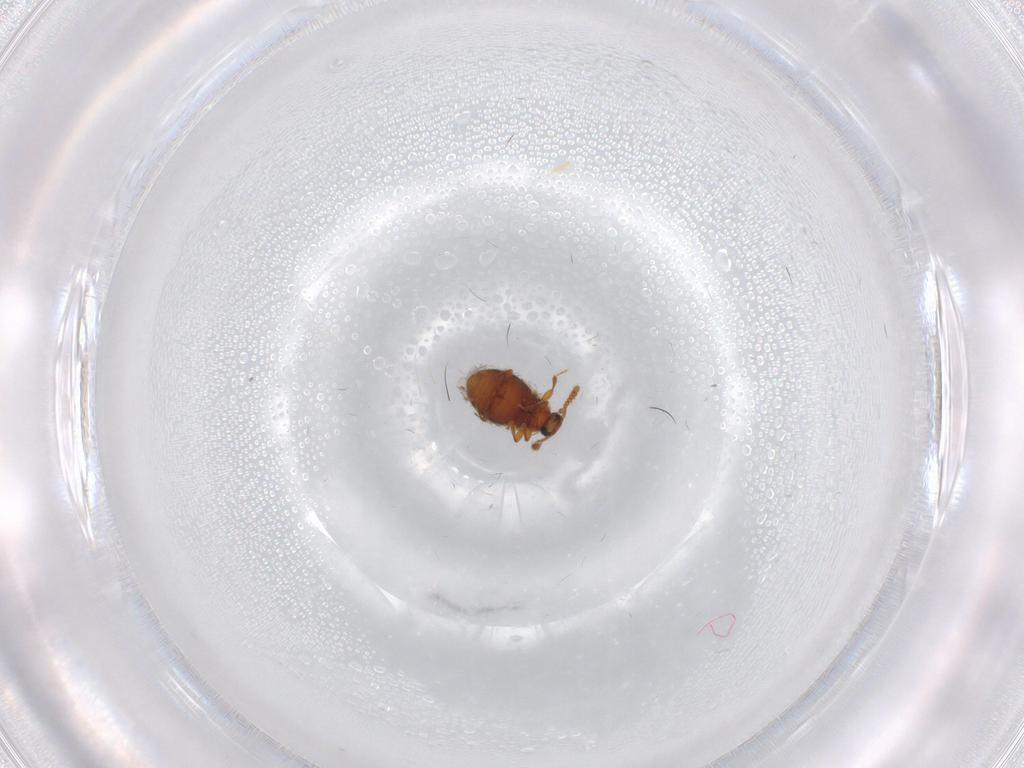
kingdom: Animalia
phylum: Arthropoda
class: Insecta
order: Coleoptera
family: Staphylinidae
